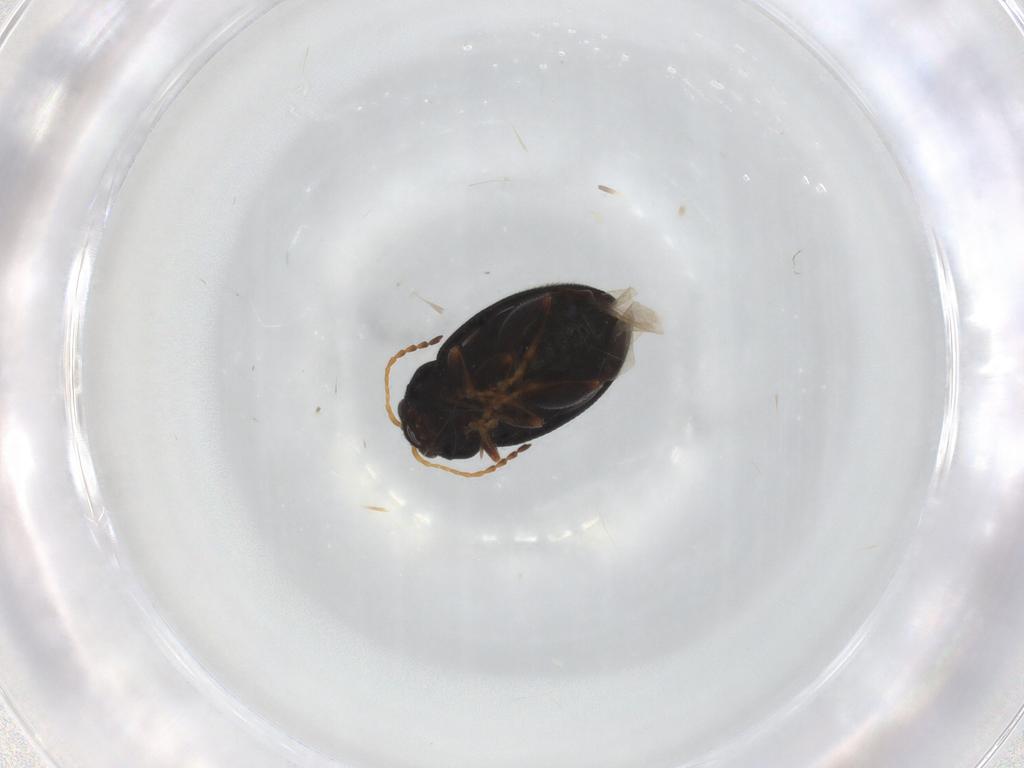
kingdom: Animalia
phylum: Arthropoda
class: Insecta
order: Coleoptera
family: Chrysomelidae
